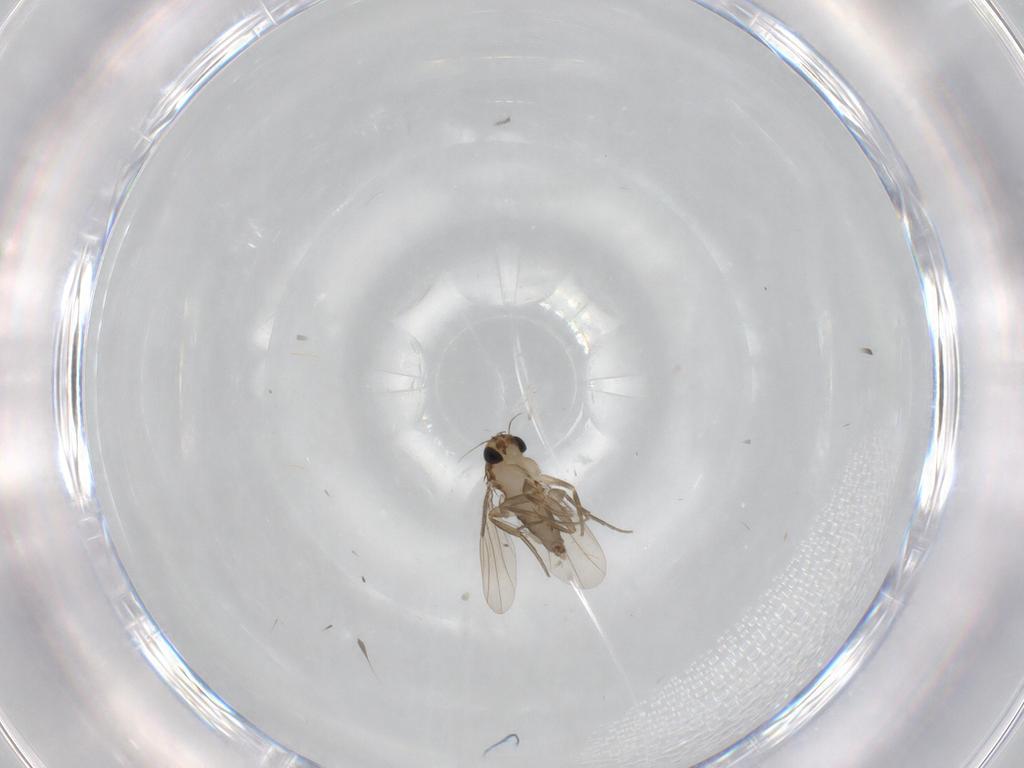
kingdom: Animalia
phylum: Arthropoda
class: Insecta
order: Diptera
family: Phoridae
